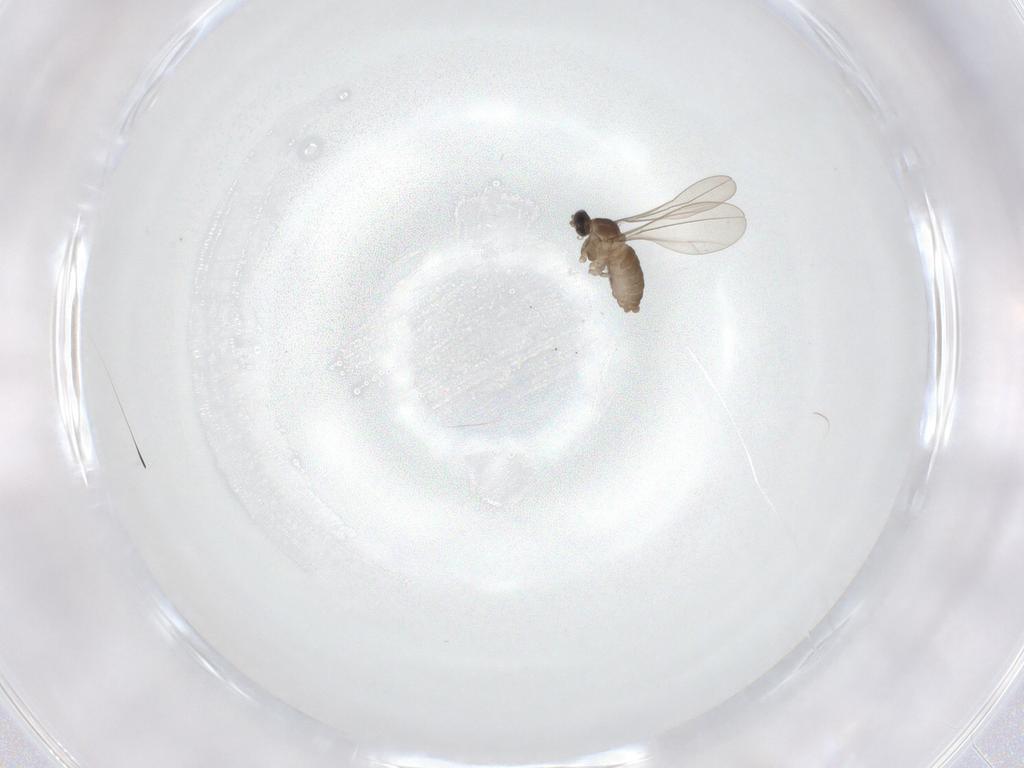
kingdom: Animalia
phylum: Arthropoda
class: Insecta
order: Diptera
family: Cecidomyiidae
